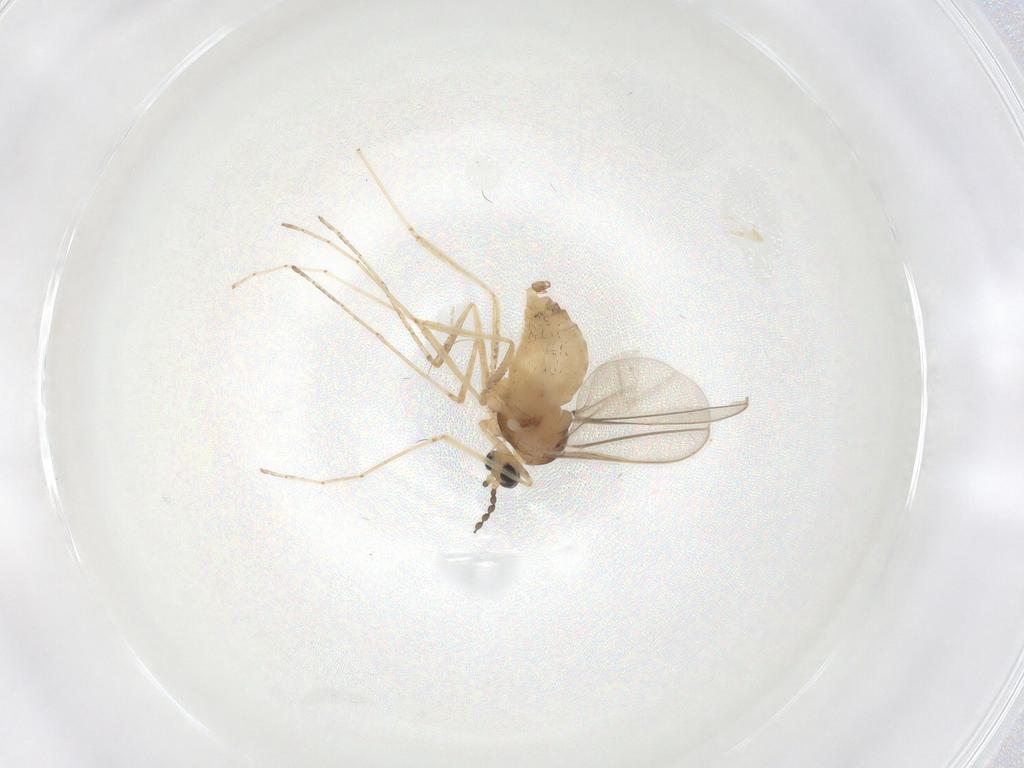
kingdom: Animalia
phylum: Arthropoda
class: Insecta
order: Diptera
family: Cecidomyiidae
